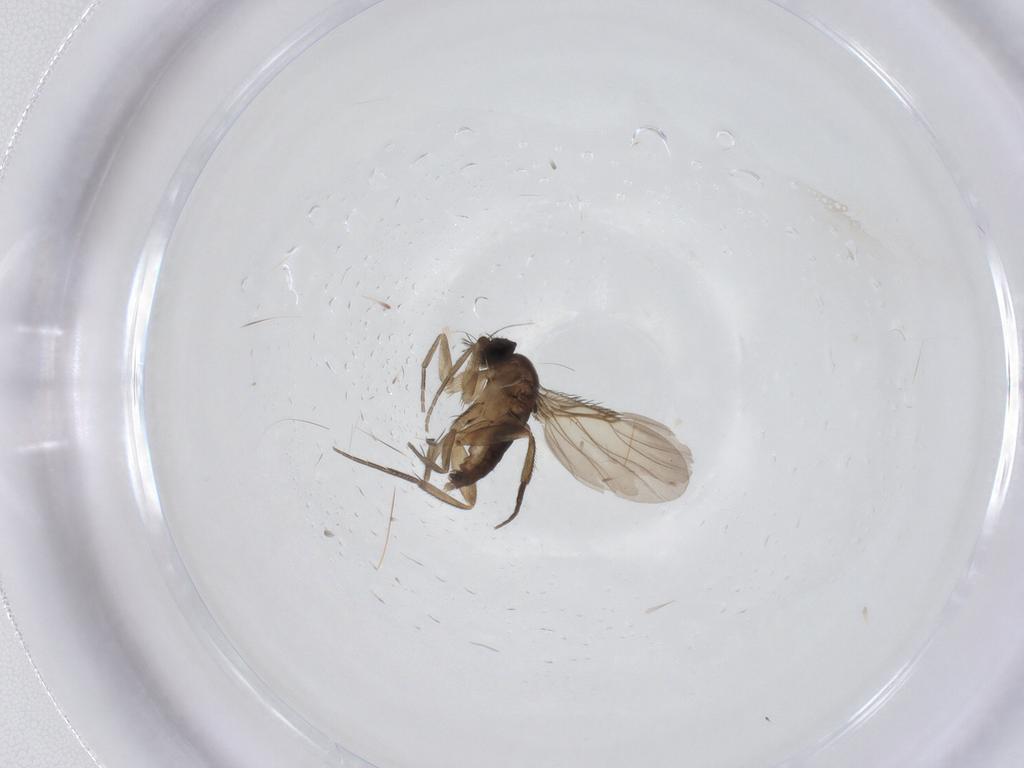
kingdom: Animalia
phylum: Arthropoda
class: Insecta
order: Diptera
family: Phoridae
